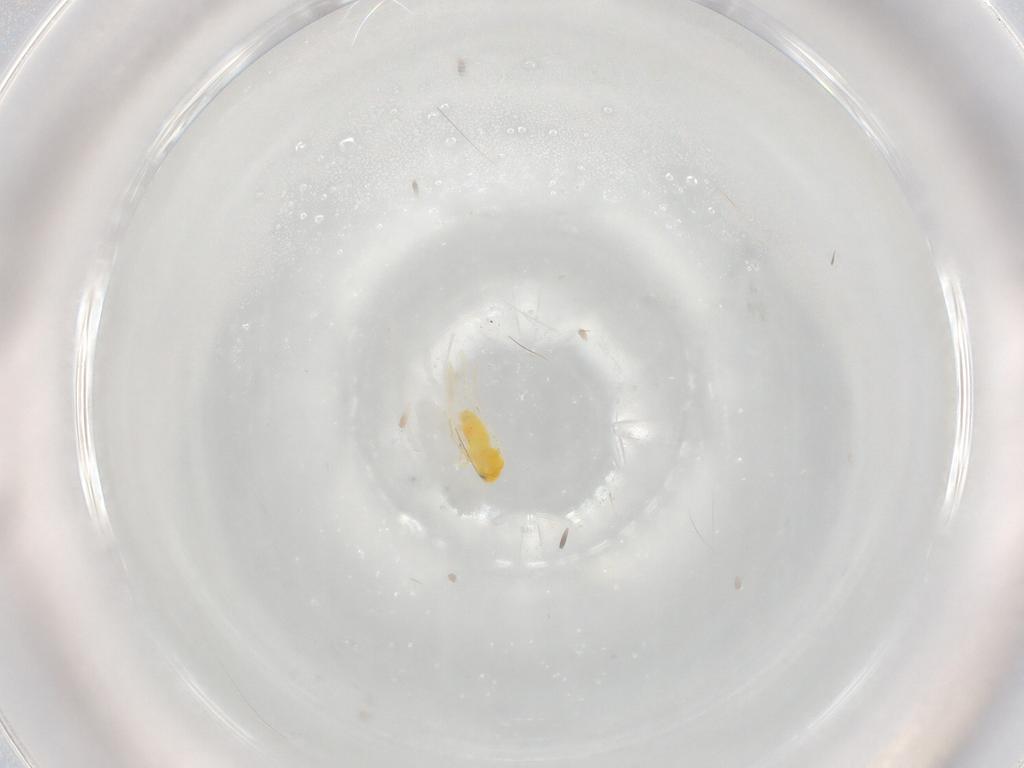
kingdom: Animalia
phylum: Arthropoda
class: Insecta
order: Hemiptera
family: Aleyrodidae
